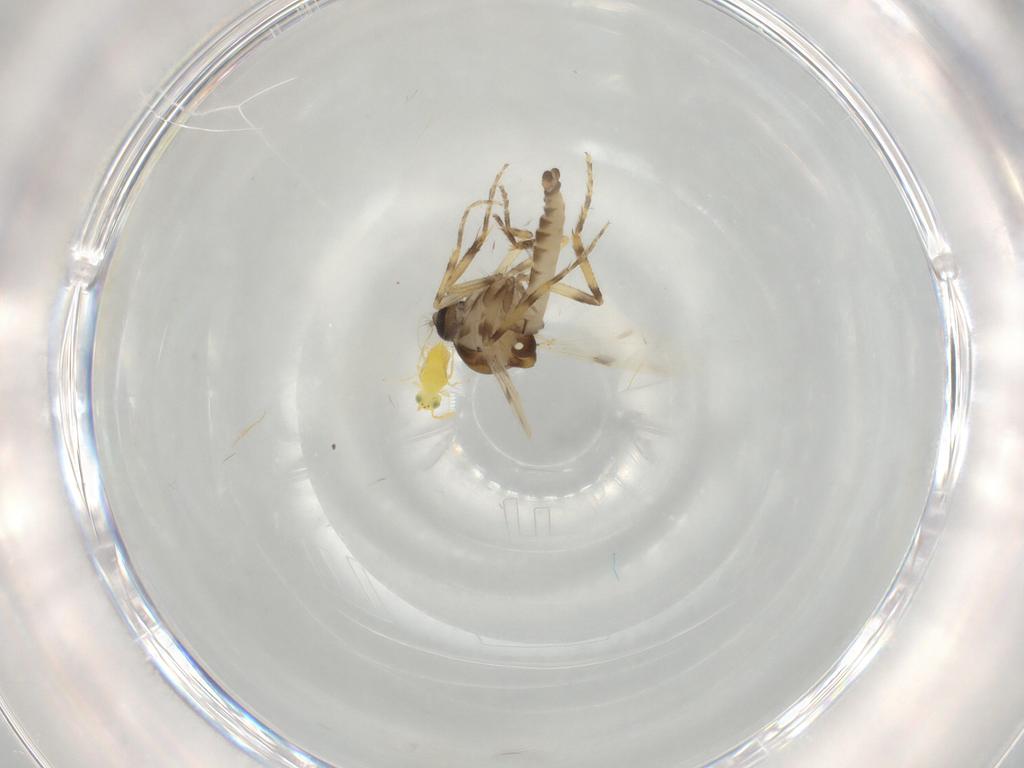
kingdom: Animalia
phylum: Arthropoda
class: Insecta
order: Diptera
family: Ceratopogonidae
